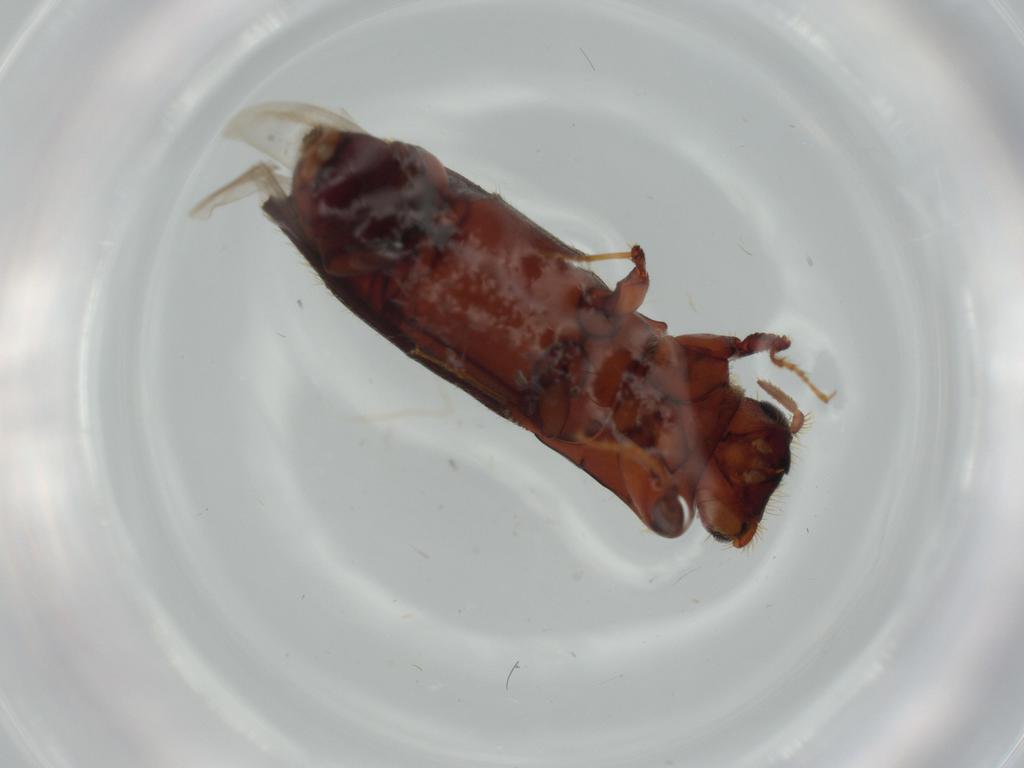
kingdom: Animalia
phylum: Arthropoda
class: Insecta
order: Coleoptera
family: Curculionidae
